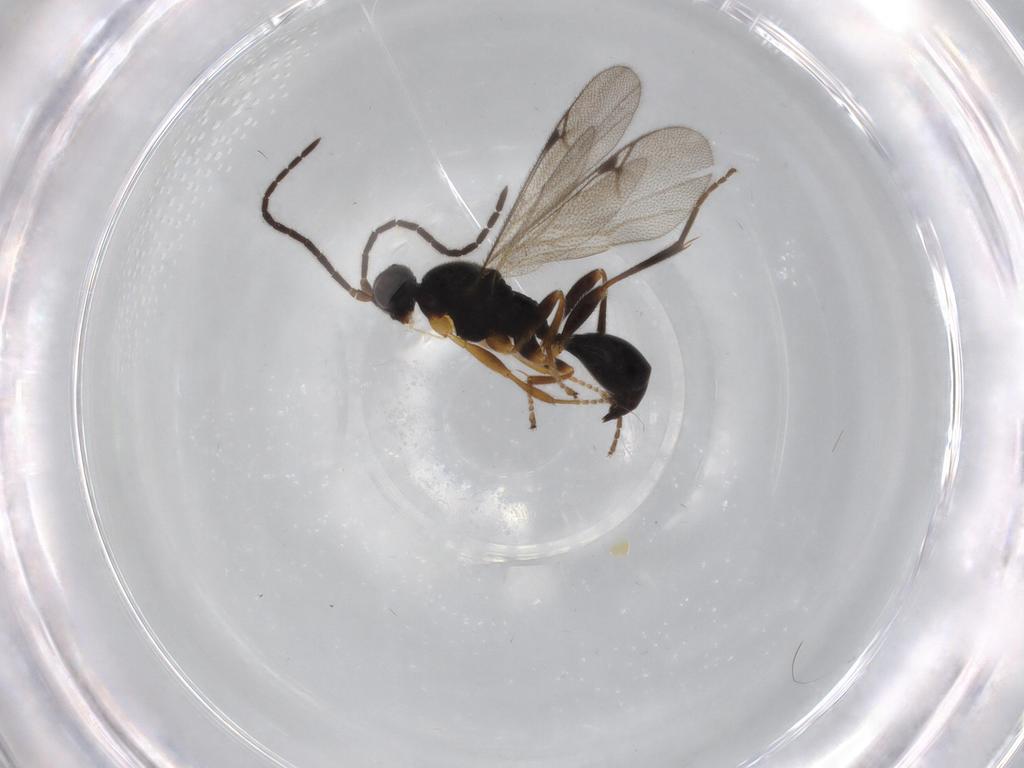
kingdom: Animalia
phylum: Arthropoda
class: Insecta
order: Hymenoptera
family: Proctotrupidae
